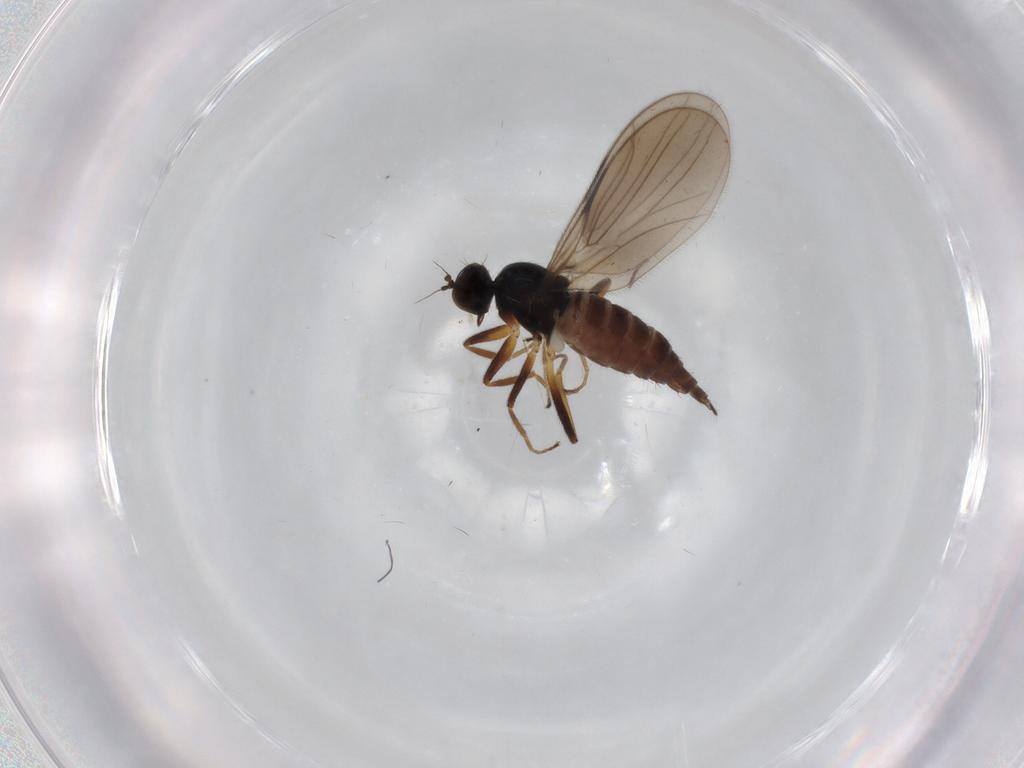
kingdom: Animalia
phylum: Arthropoda
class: Insecta
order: Diptera
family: Hybotidae
